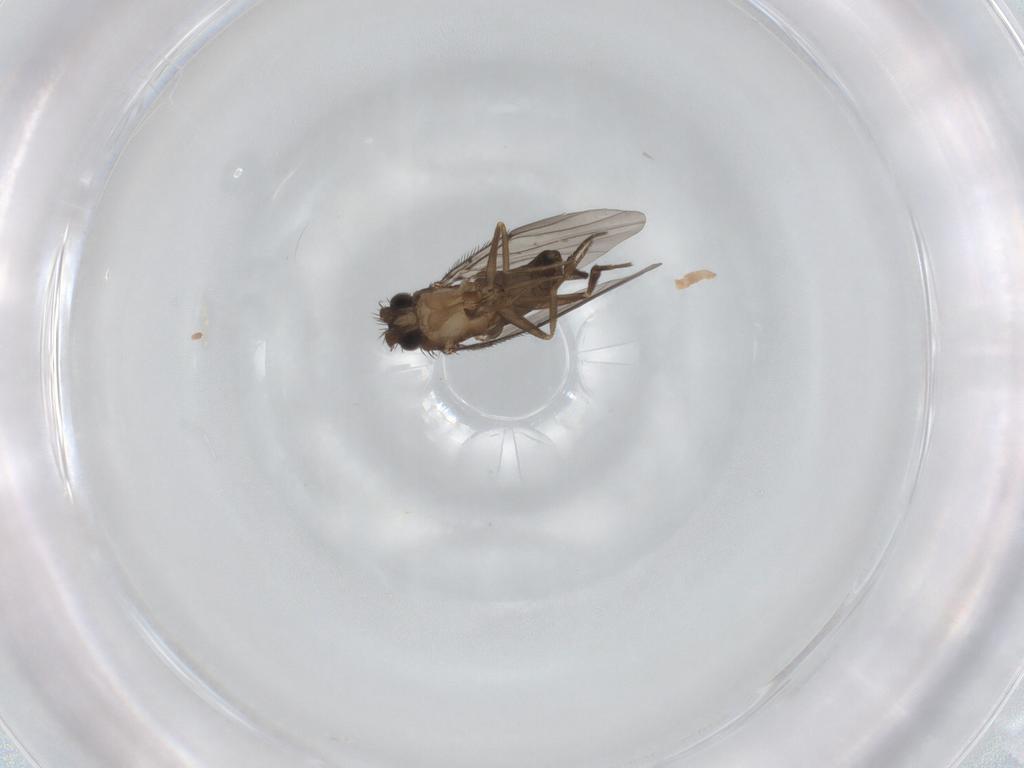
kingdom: Animalia
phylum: Arthropoda
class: Insecta
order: Diptera
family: Phoridae
